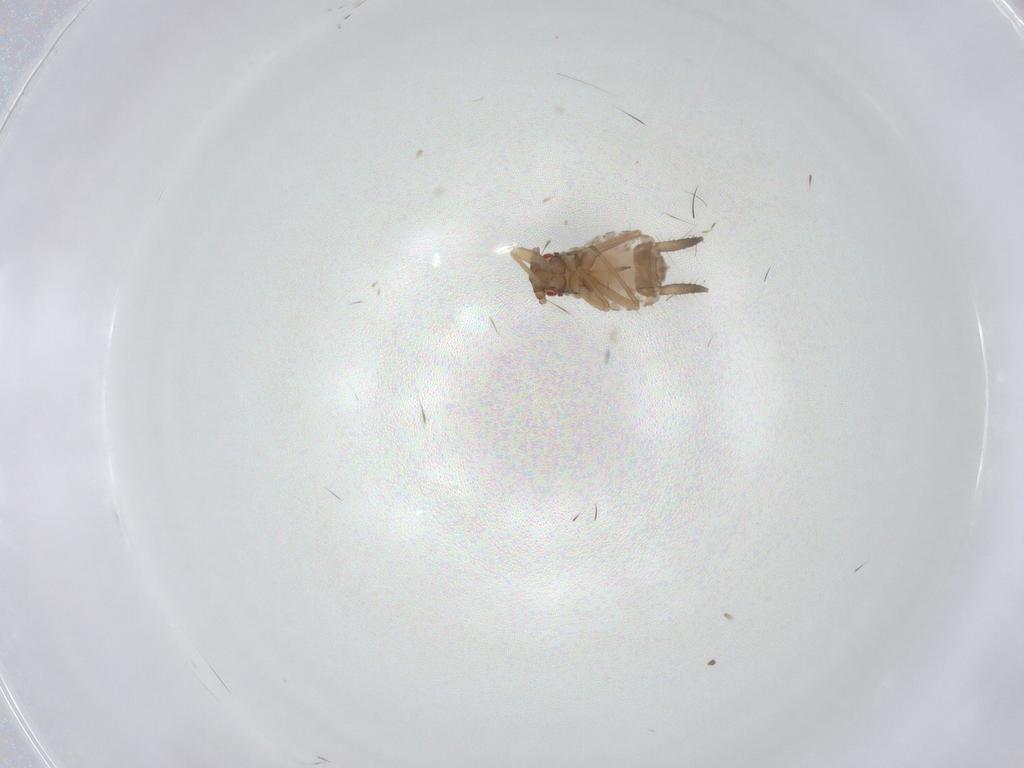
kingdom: Animalia
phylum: Arthropoda
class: Insecta
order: Hemiptera
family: Aphididae
